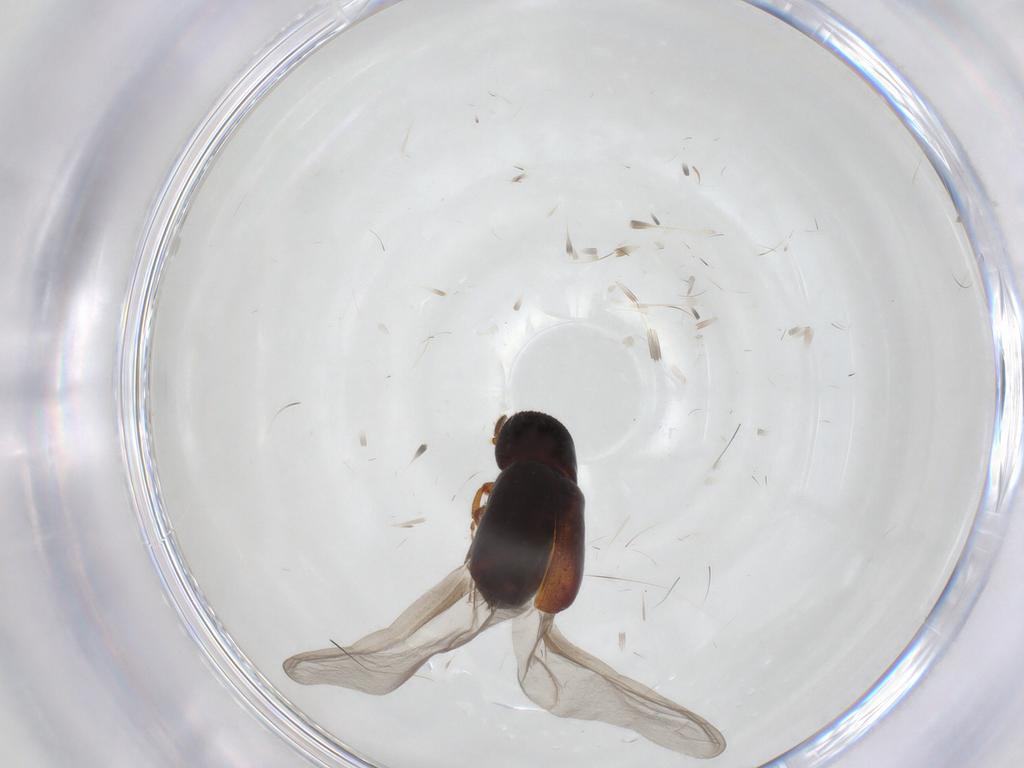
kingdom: Animalia
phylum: Arthropoda
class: Insecta
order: Coleoptera
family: Curculionidae
